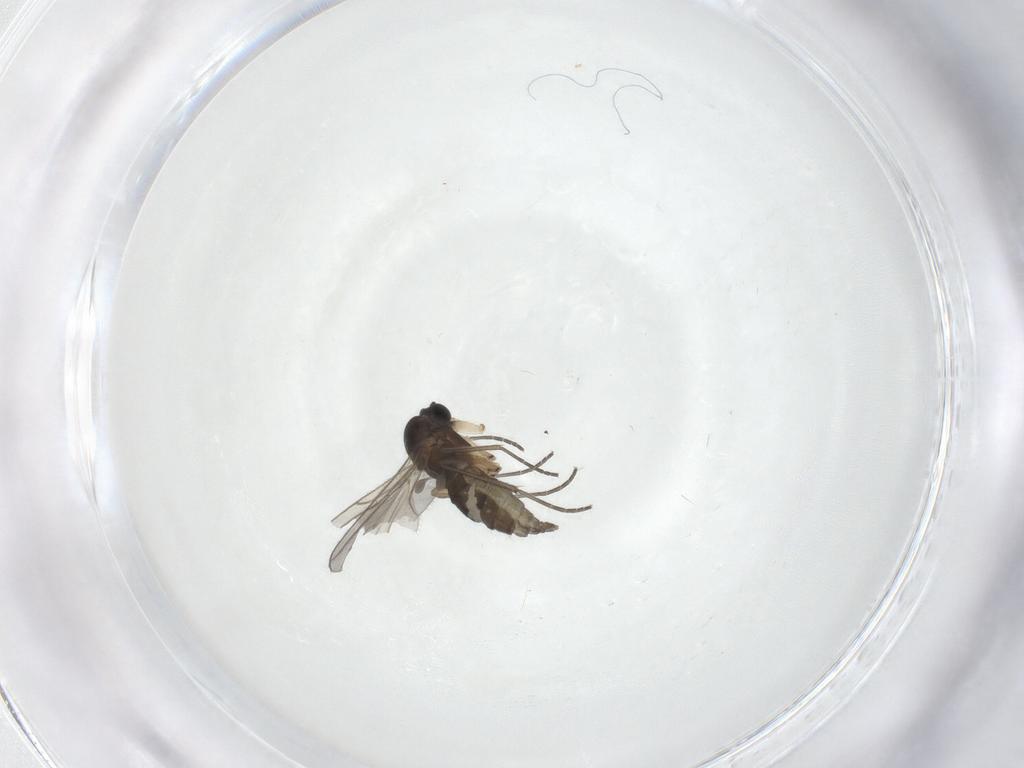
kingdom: Animalia
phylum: Arthropoda
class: Insecta
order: Diptera
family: Sciaridae
